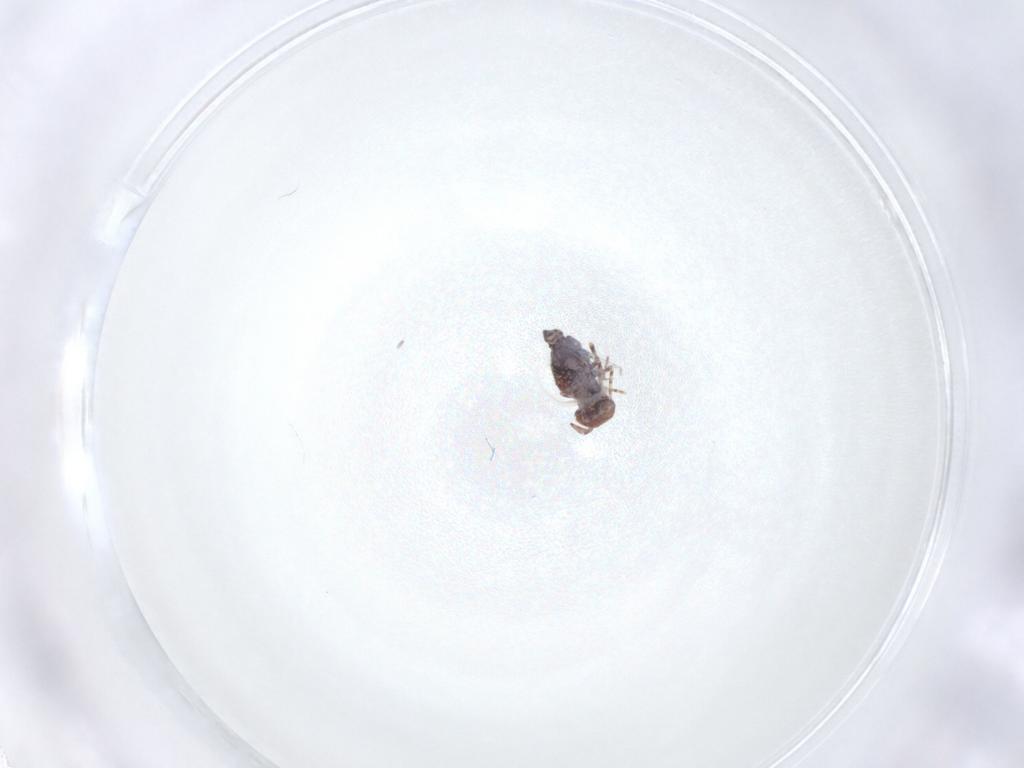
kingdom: Animalia
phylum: Arthropoda
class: Collembola
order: Symphypleona
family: Bourletiellidae
